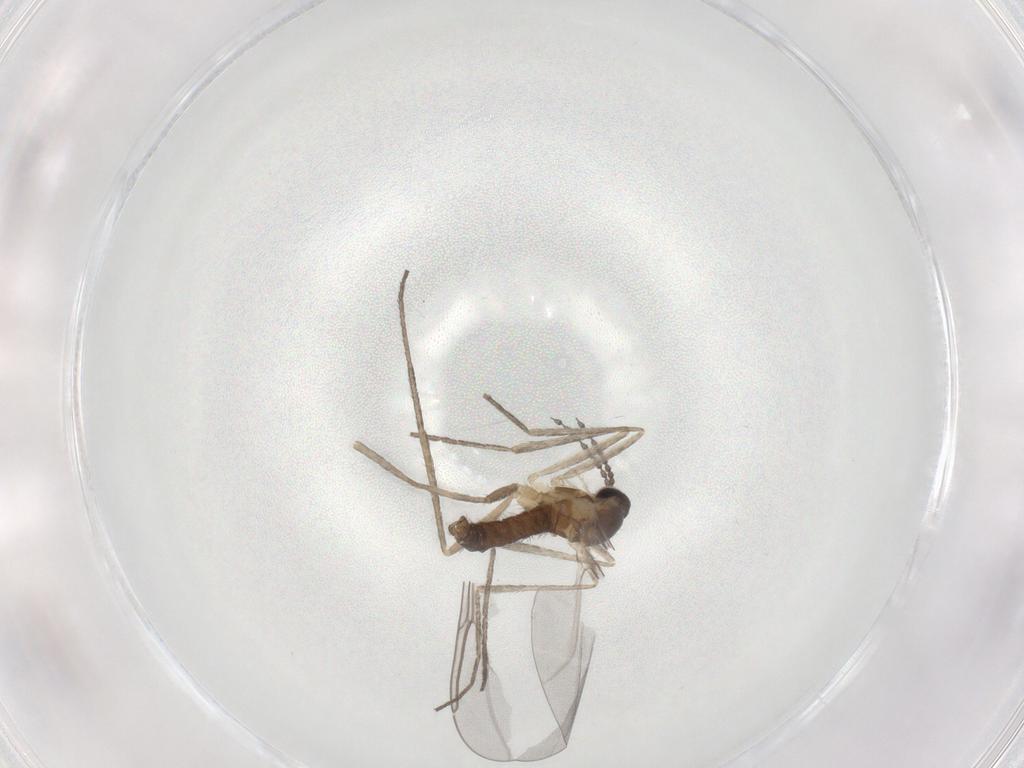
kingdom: Animalia
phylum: Arthropoda
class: Insecta
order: Diptera
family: Cecidomyiidae
